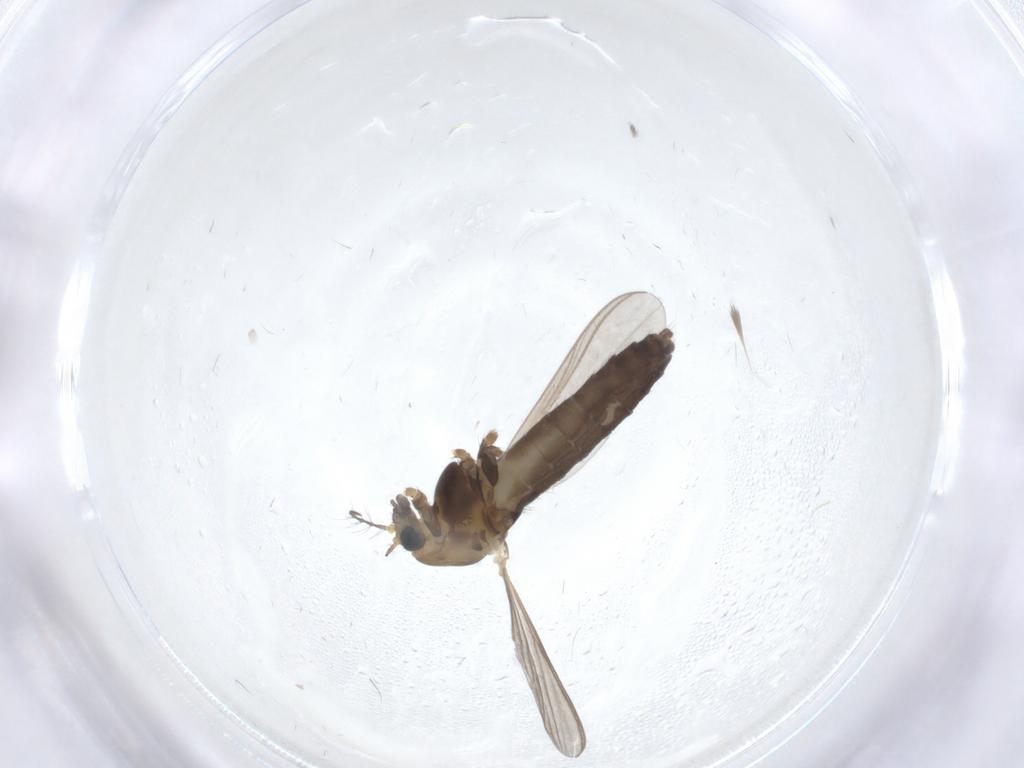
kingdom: Animalia
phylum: Arthropoda
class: Insecta
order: Diptera
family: Chironomidae
